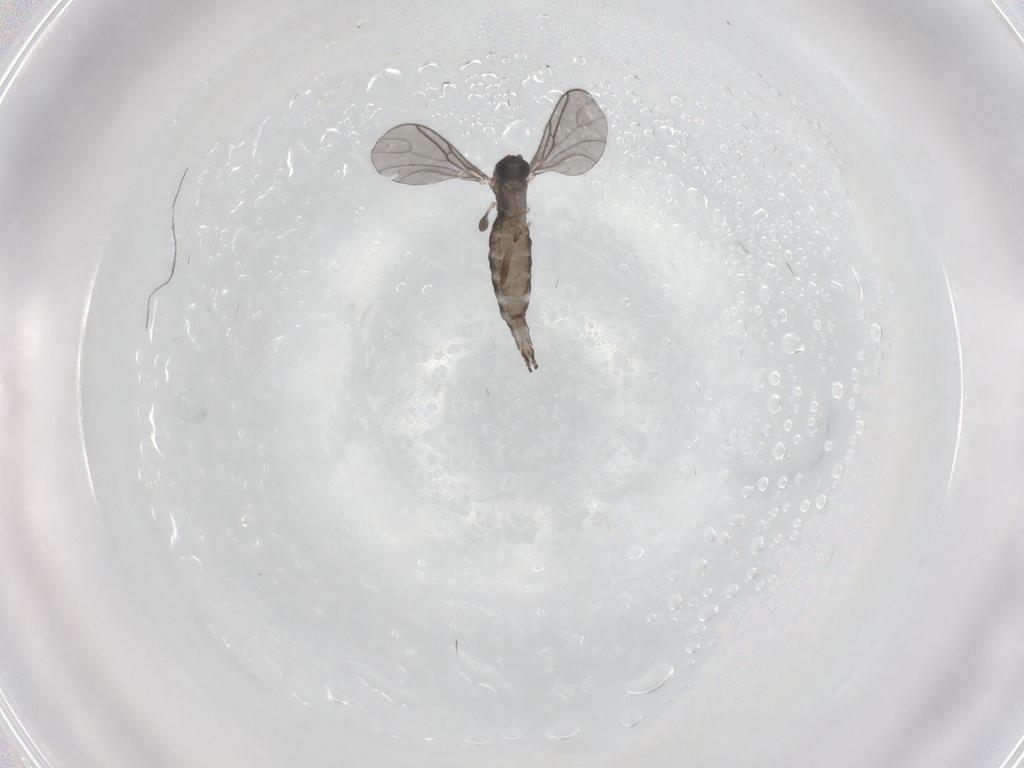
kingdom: Animalia
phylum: Arthropoda
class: Insecta
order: Diptera
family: Sciaridae
